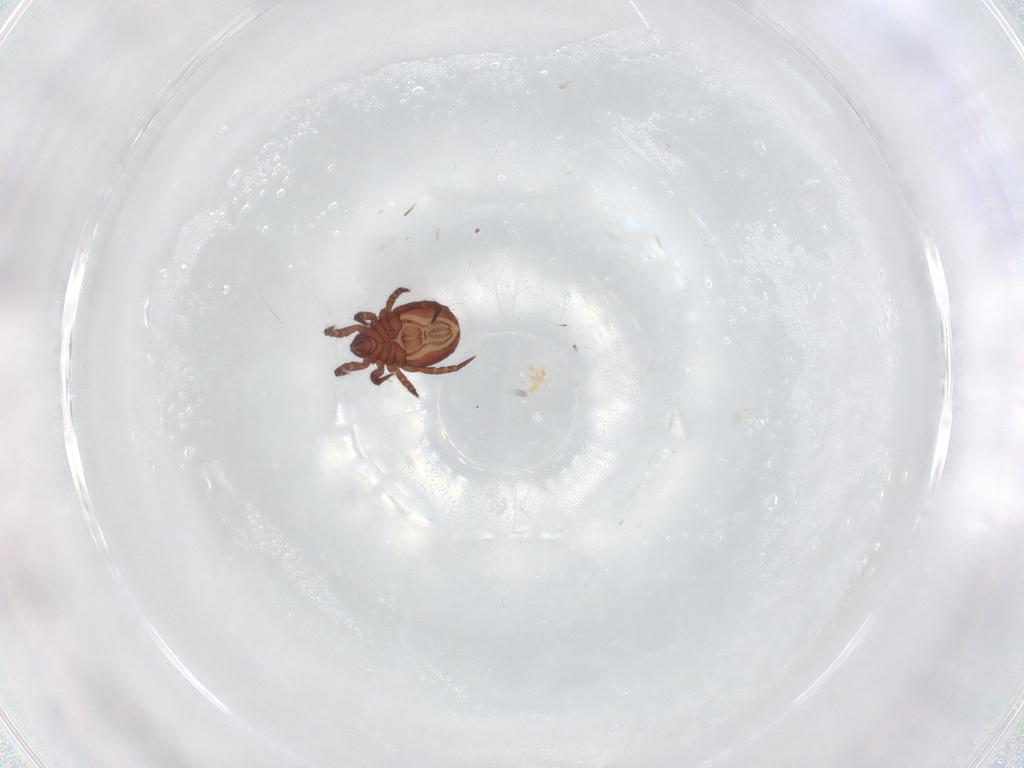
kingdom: Animalia
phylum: Arthropoda
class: Arachnida
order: Sarcoptiformes
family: Nothridae
